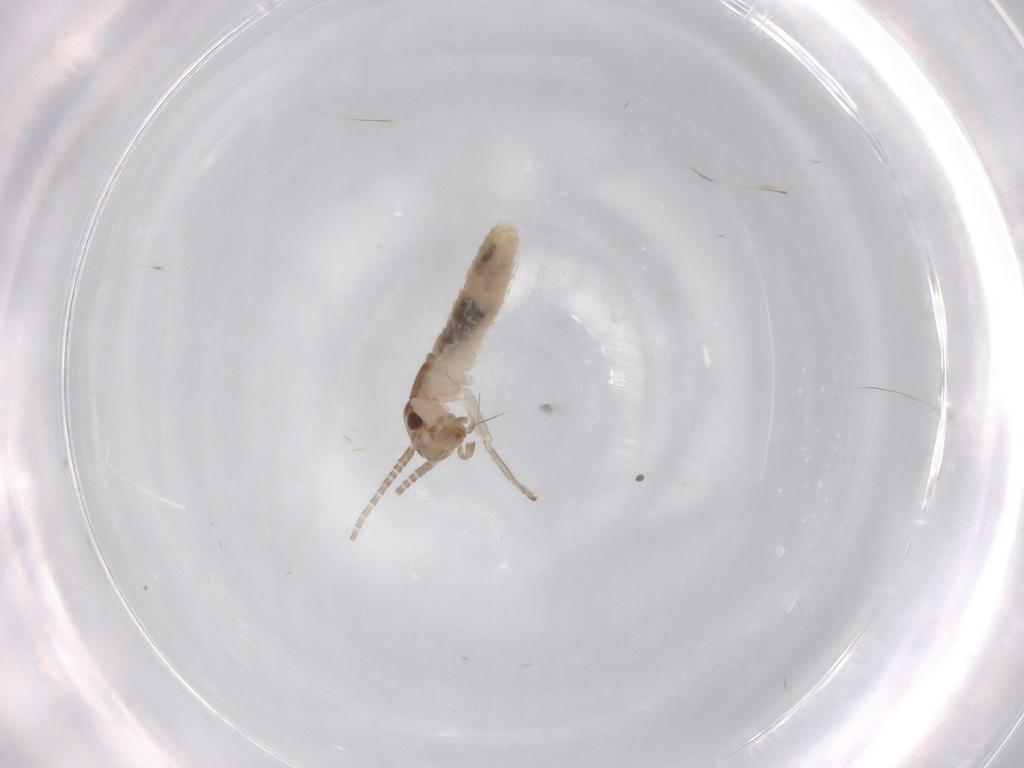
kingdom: Animalia
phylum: Arthropoda
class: Insecta
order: Orthoptera
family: Gryllidae
